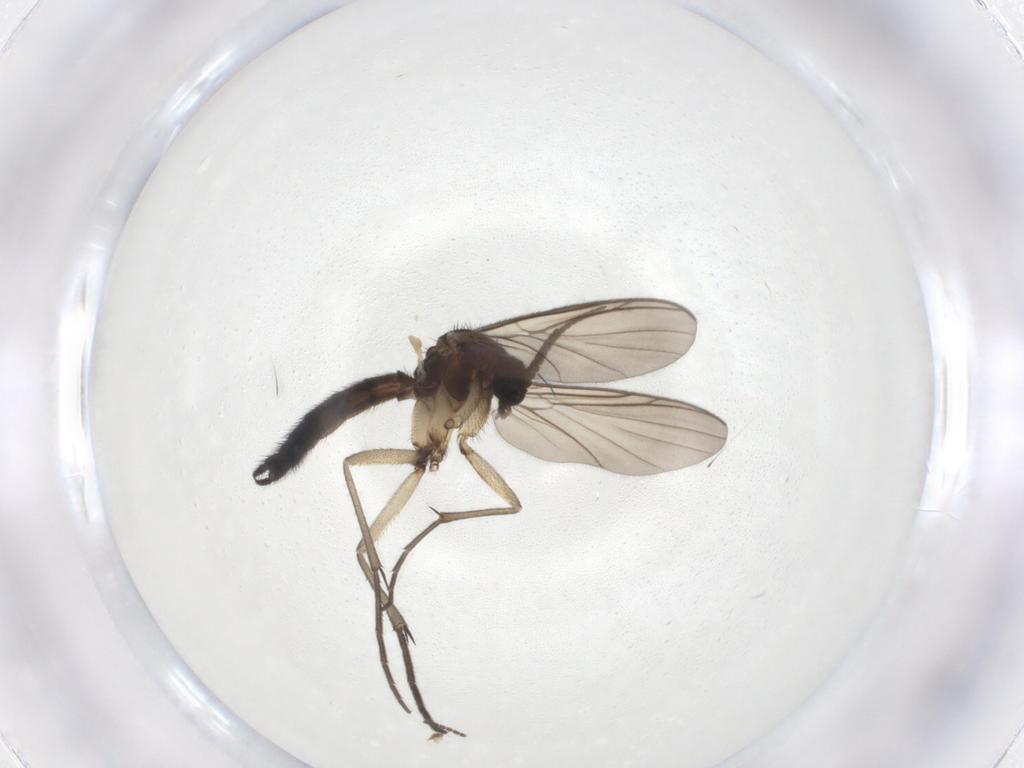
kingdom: Animalia
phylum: Arthropoda
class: Insecta
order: Diptera
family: Keroplatidae
